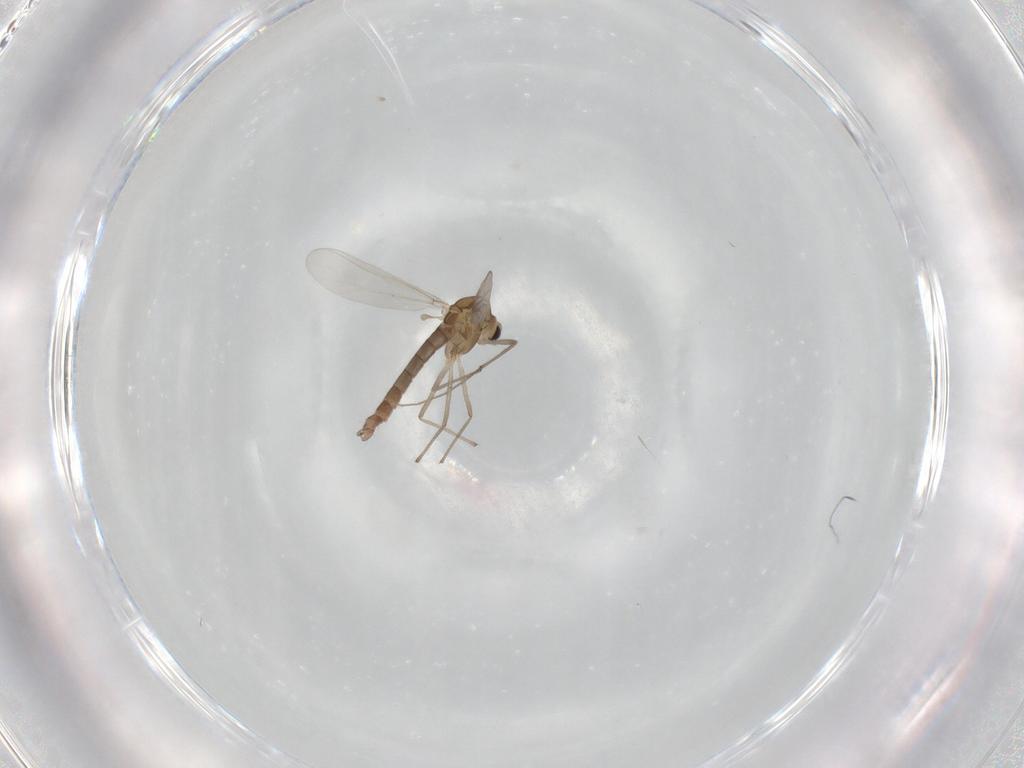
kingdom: Animalia
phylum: Arthropoda
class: Insecta
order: Diptera
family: Chironomidae
